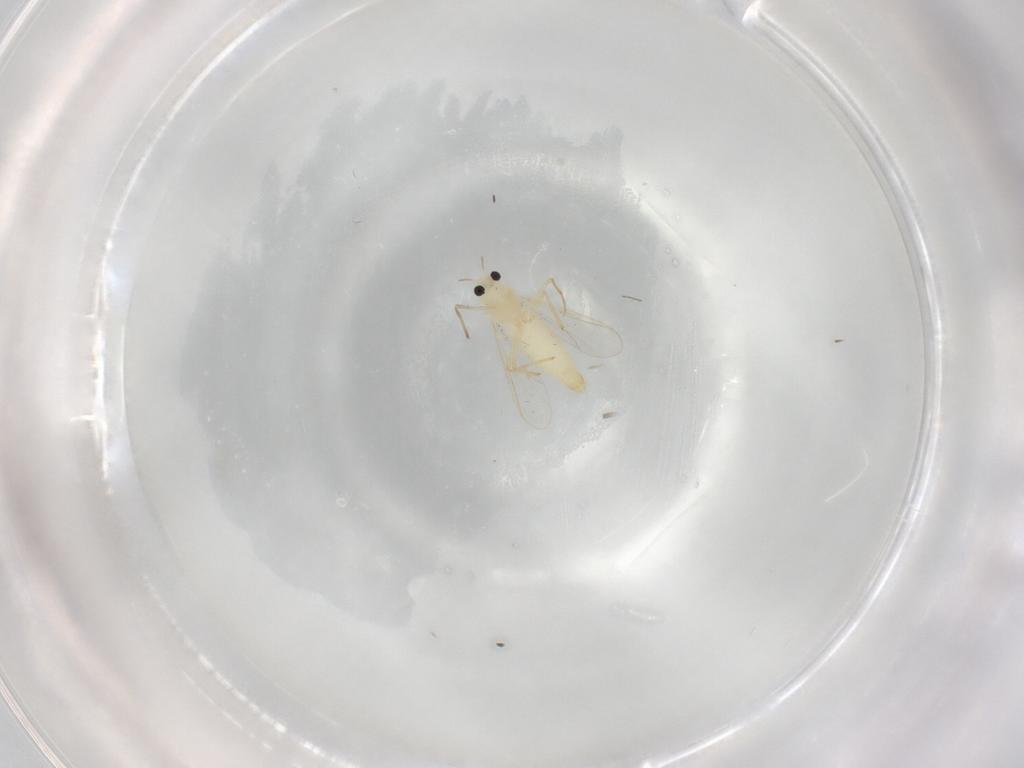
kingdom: Animalia
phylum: Arthropoda
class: Insecta
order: Diptera
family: Chironomidae
